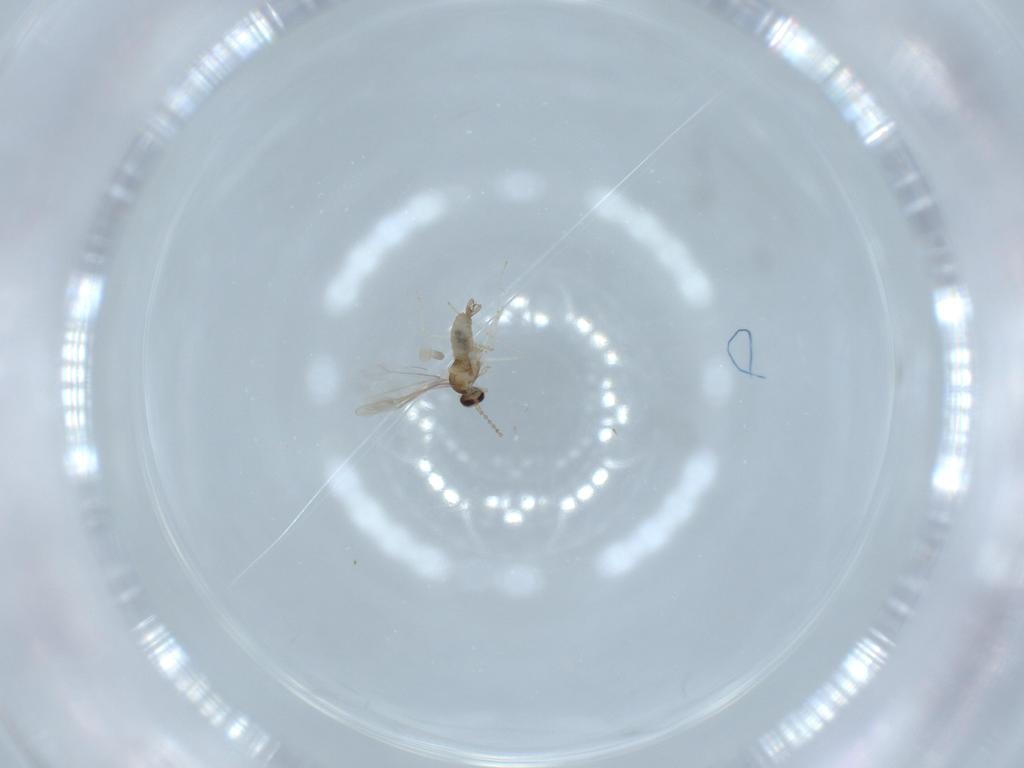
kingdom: Animalia
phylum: Arthropoda
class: Insecta
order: Diptera
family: Cecidomyiidae
